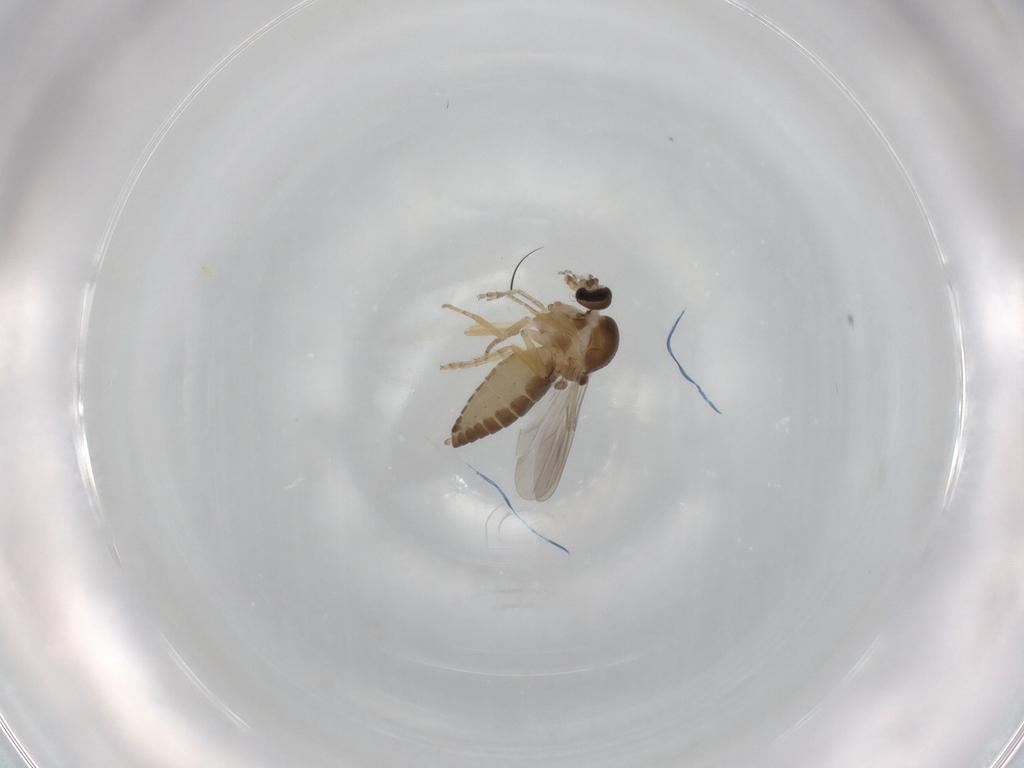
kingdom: Animalia
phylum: Arthropoda
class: Insecta
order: Diptera
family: Ceratopogonidae
